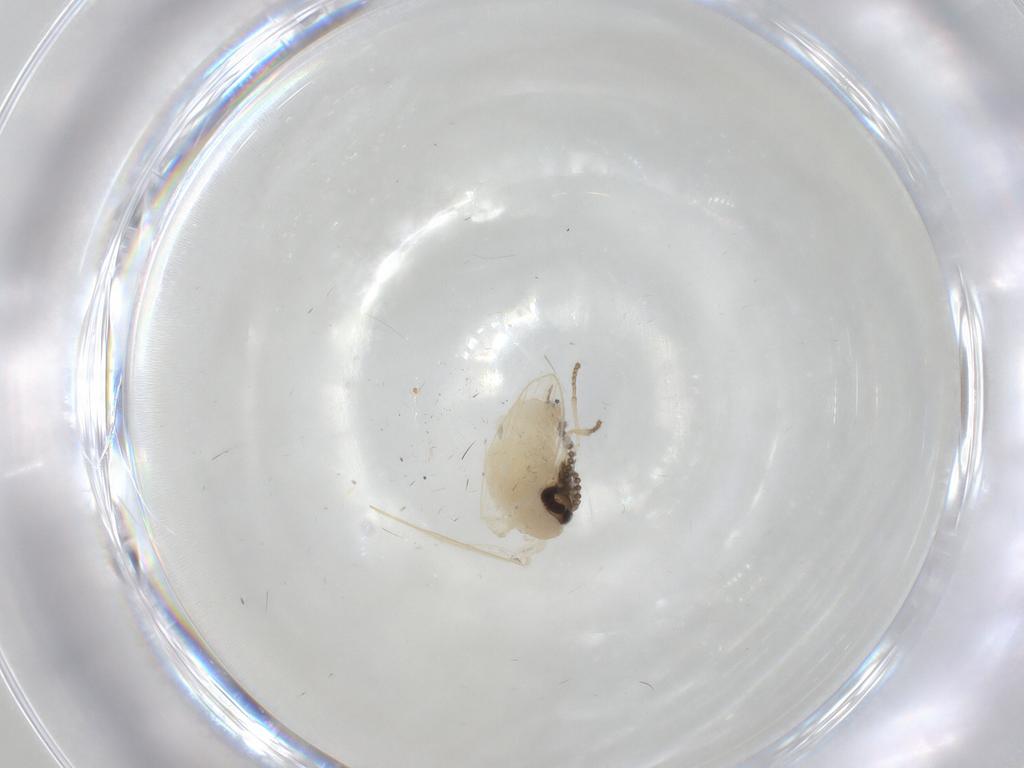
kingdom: Animalia
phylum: Arthropoda
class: Insecta
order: Diptera
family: Psychodidae
